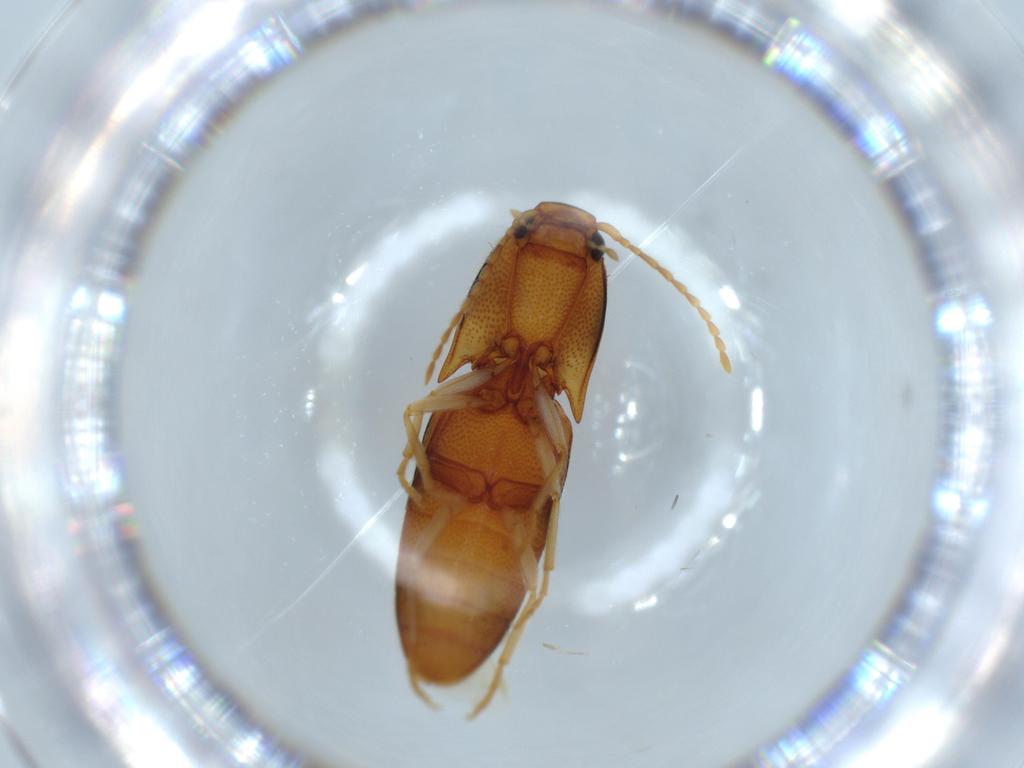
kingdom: Animalia
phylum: Arthropoda
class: Insecta
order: Coleoptera
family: Elateridae
